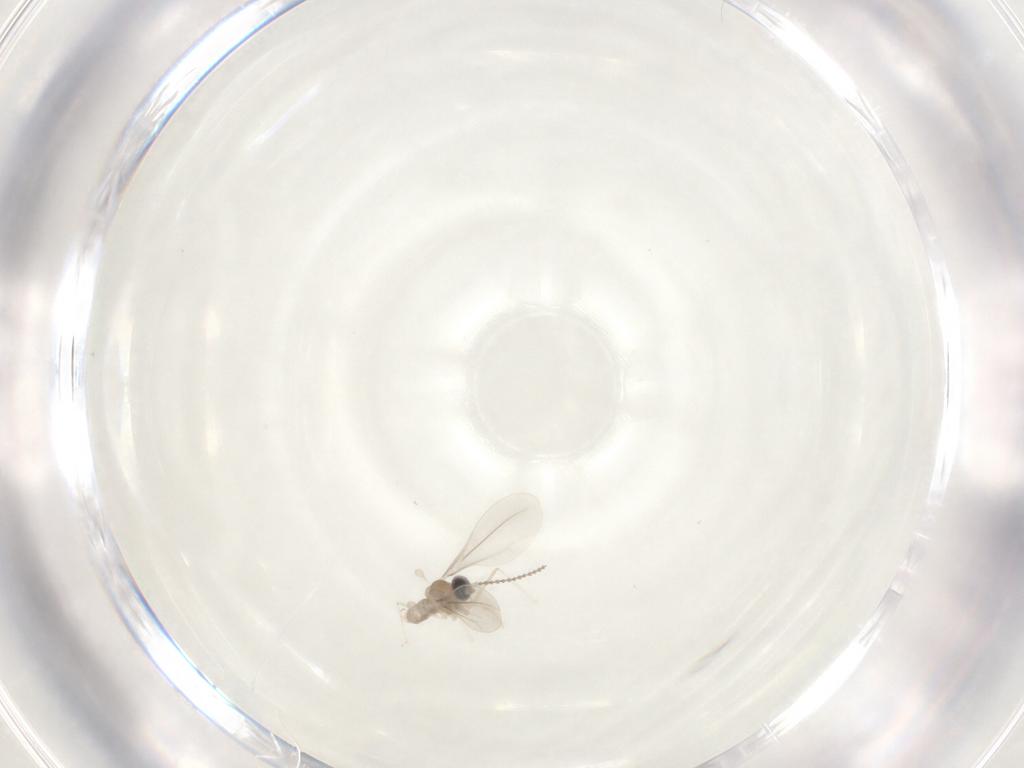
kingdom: Animalia
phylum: Arthropoda
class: Insecta
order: Diptera
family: Cecidomyiidae
